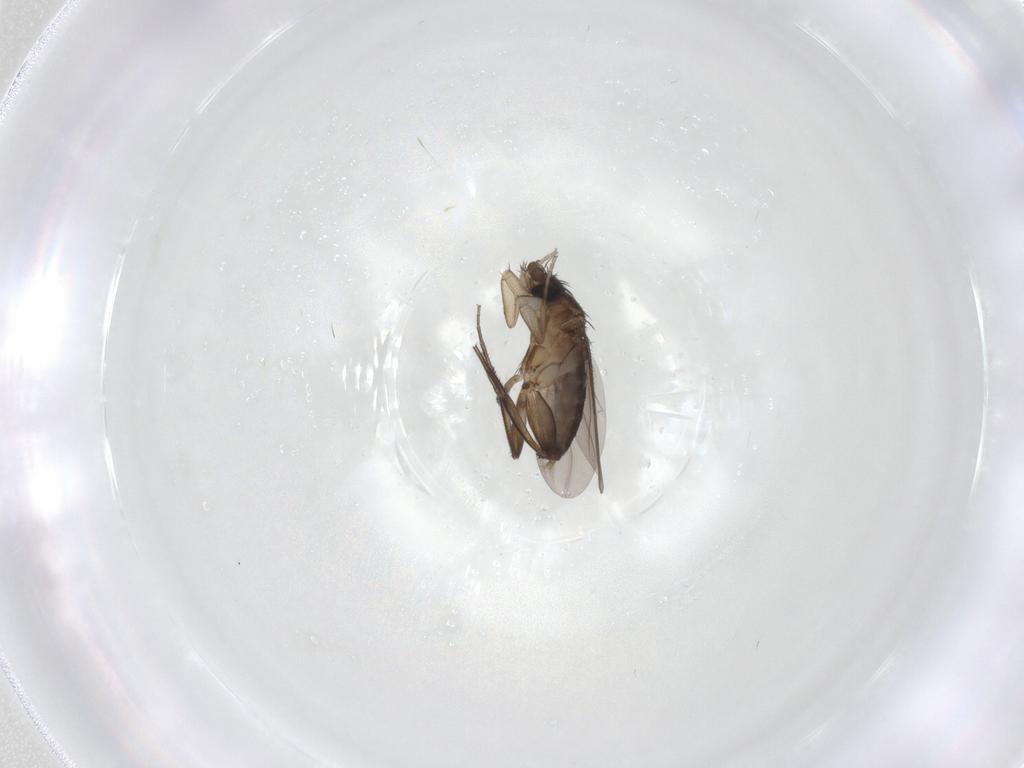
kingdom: Animalia
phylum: Arthropoda
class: Insecta
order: Diptera
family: Phoridae
